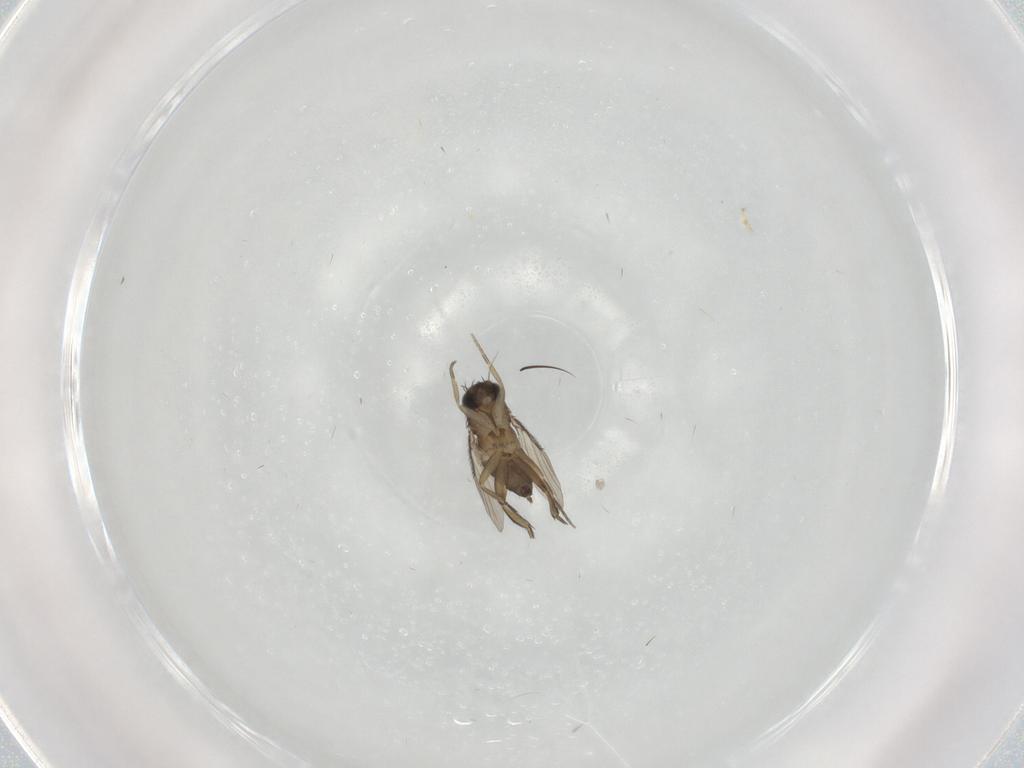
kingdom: Animalia
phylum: Arthropoda
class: Insecta
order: Diptera
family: Phoridae
